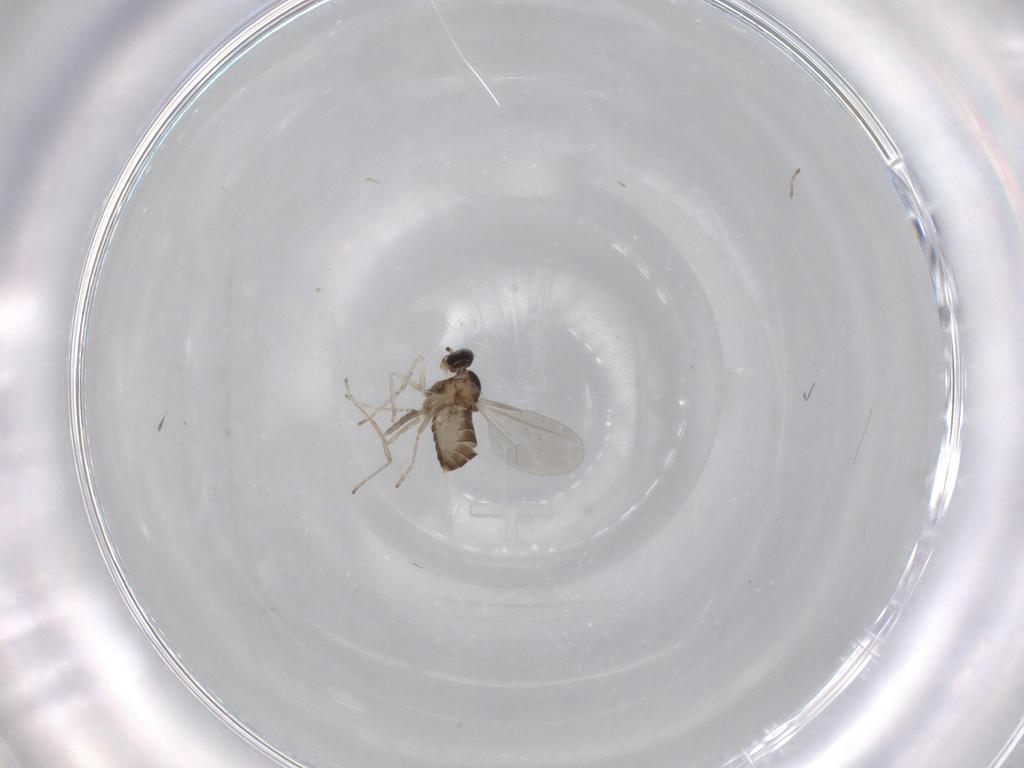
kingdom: Animalia
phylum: Arthropoda
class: Insecta
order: Diptera
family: Cecidomyiidae
